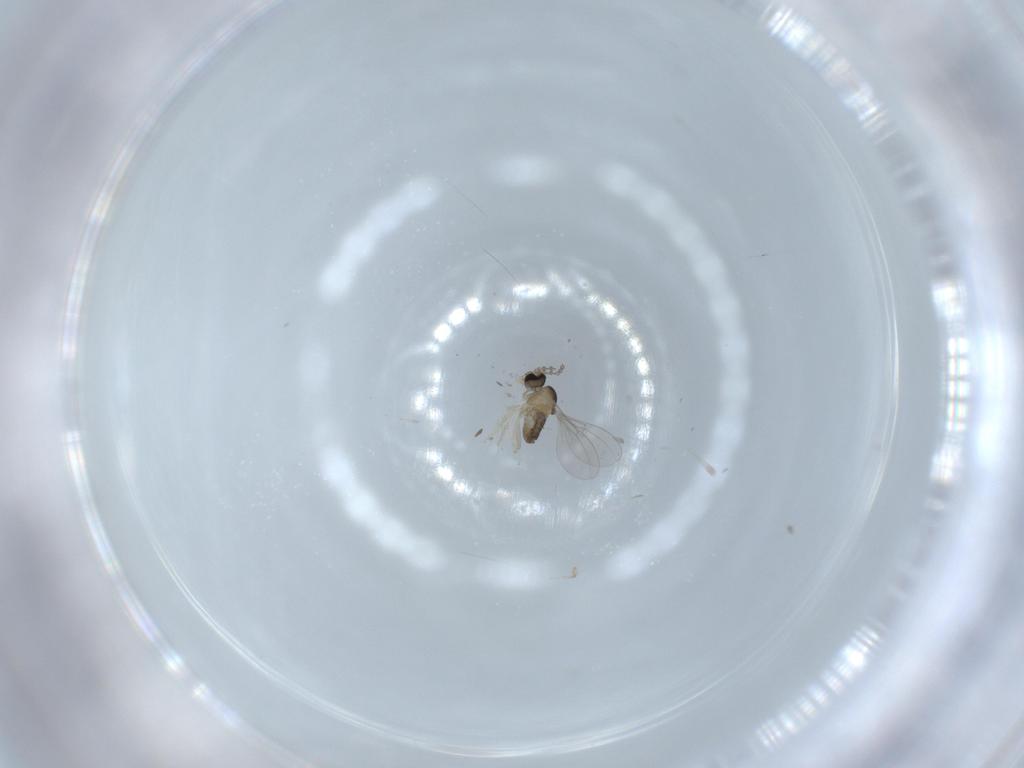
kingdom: Animalia
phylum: Arthropoda
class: Insecta
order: Diptera
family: Cecidomyiidae
